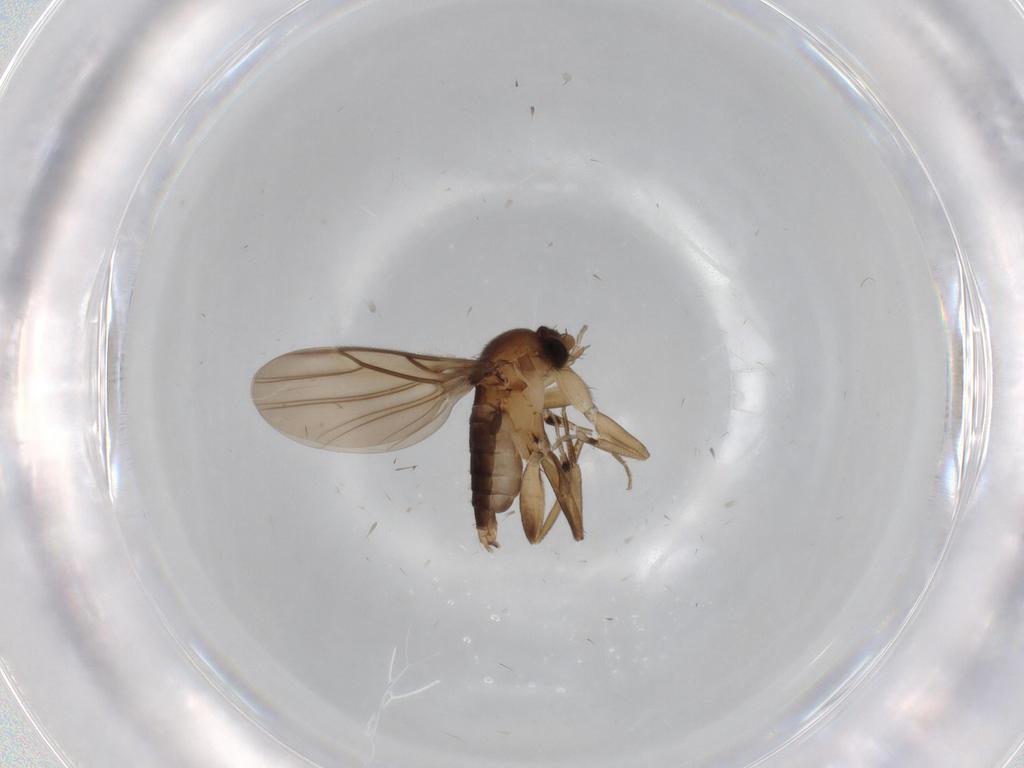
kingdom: Animalia
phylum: Arthropoda
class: Insecta
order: Diptera
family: Phoridae
